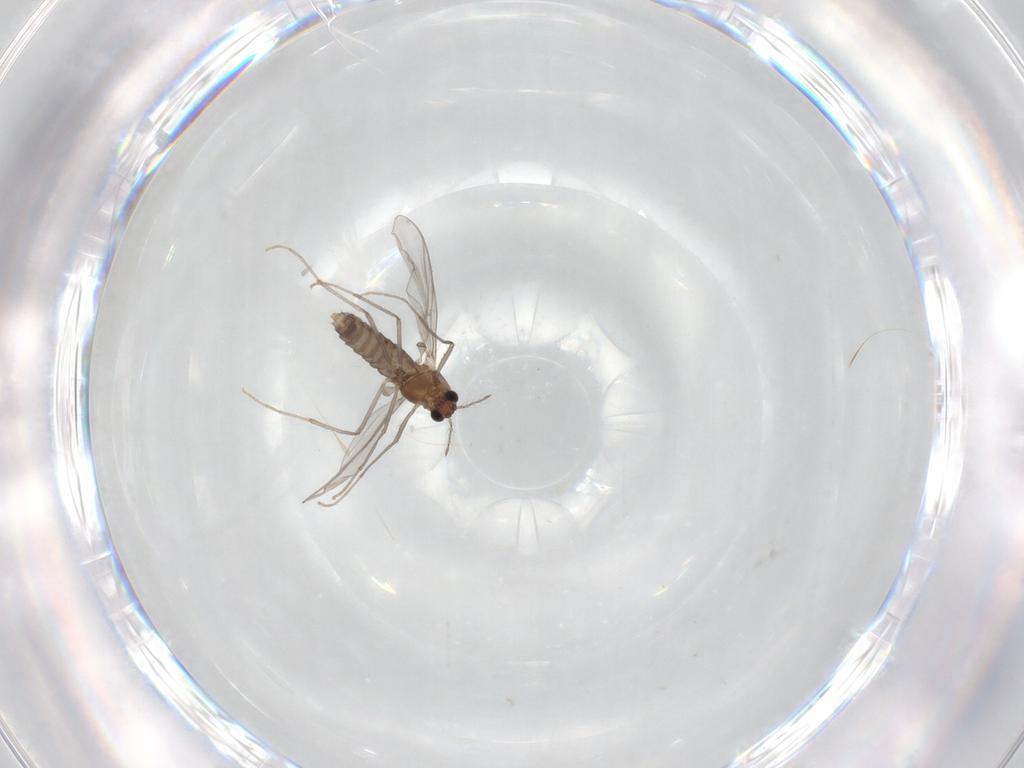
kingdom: Animalia
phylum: Arthropoda
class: Insecta
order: Diptera
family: Chironomidae
